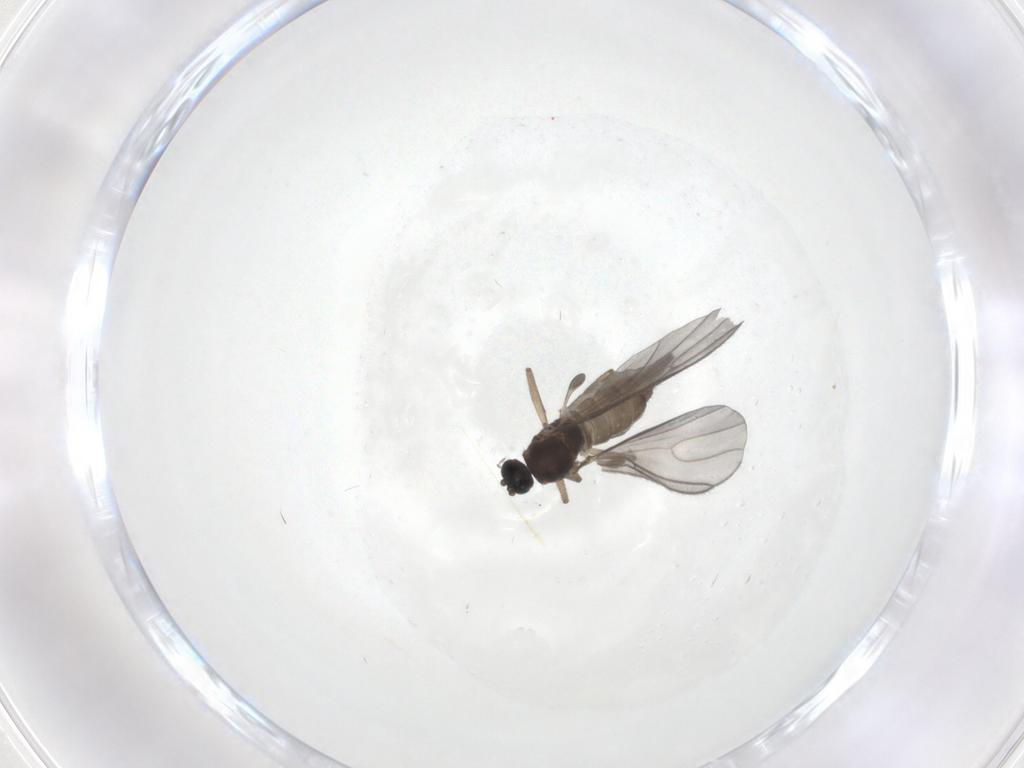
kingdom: Animalia
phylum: Arthropoda
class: Insecta
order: Diptera
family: Sciaridae
